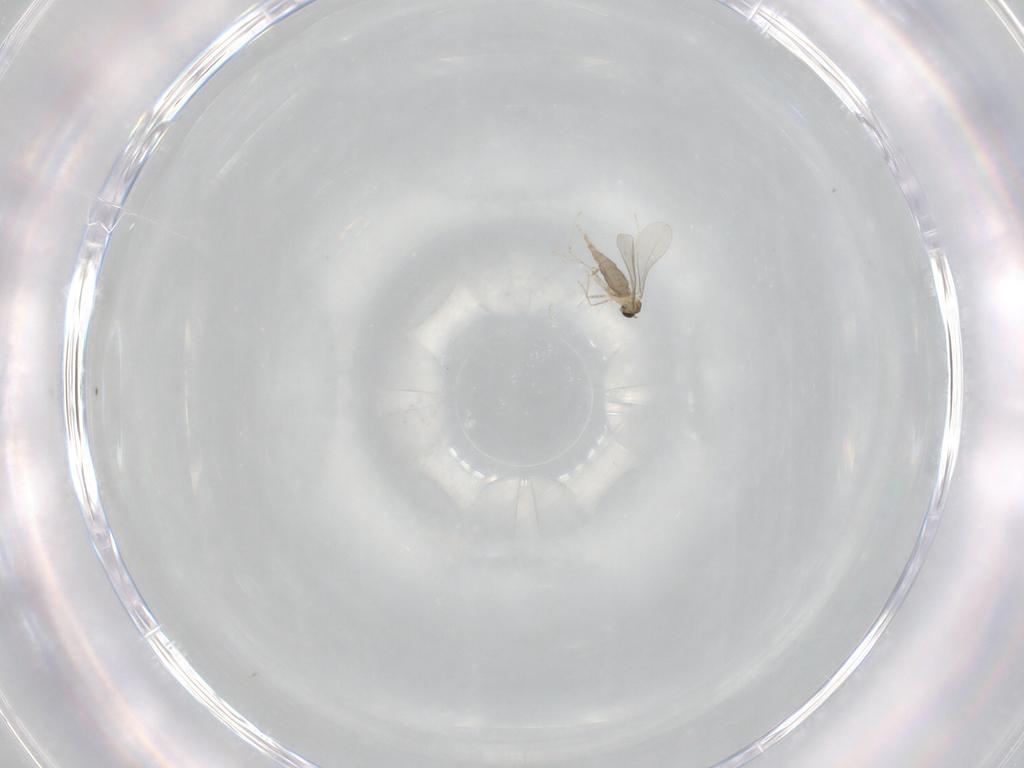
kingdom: Animalia
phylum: Arthropoda
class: Insecta
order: Diptera
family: Cecidomyiidae
